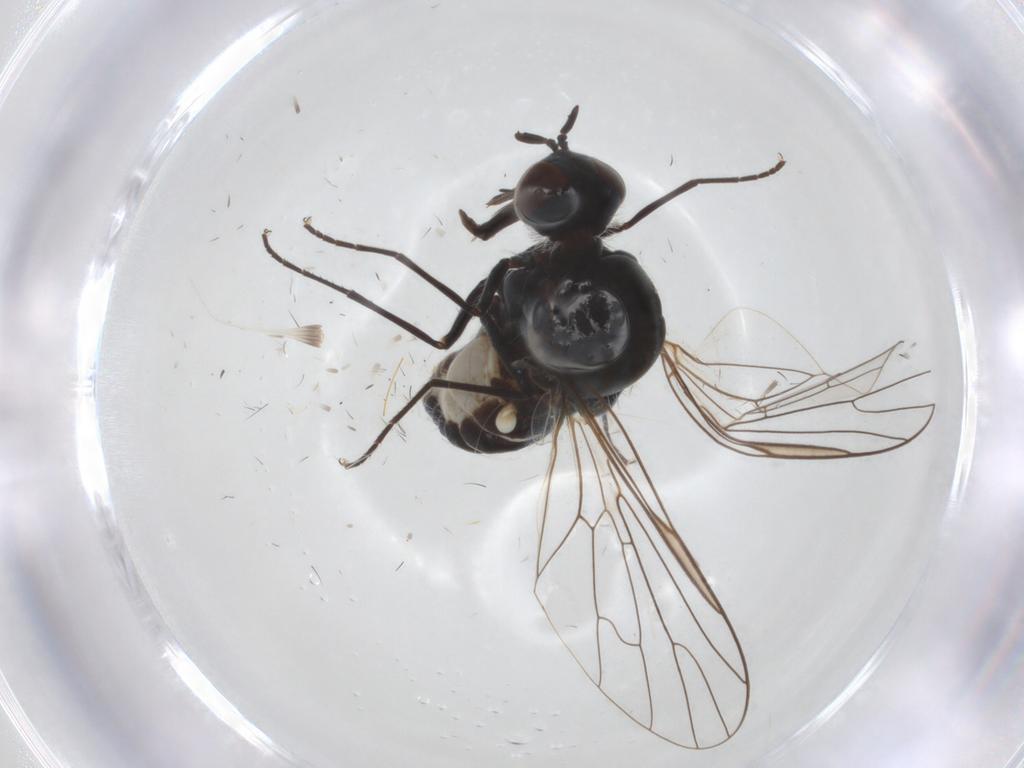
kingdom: Animalia
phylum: Arthropoda
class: Insecta
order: Diptera
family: Bombyliidae
